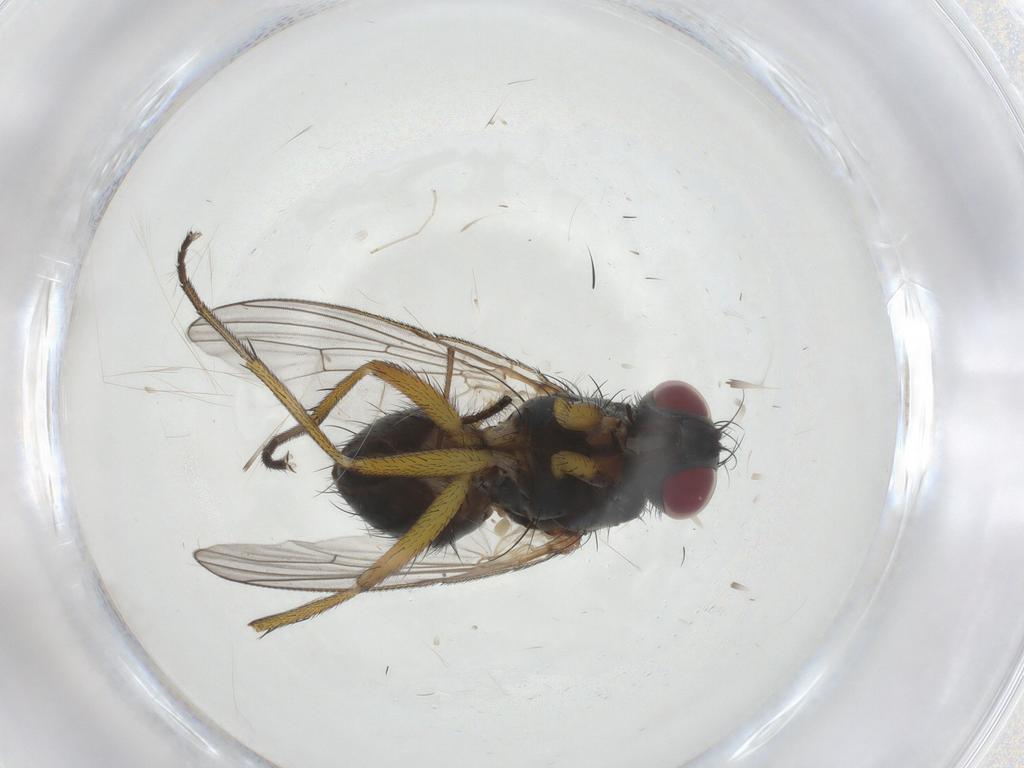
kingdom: Animalia
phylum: Arthropoda
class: Insecta
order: Diptera
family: Muscidae
